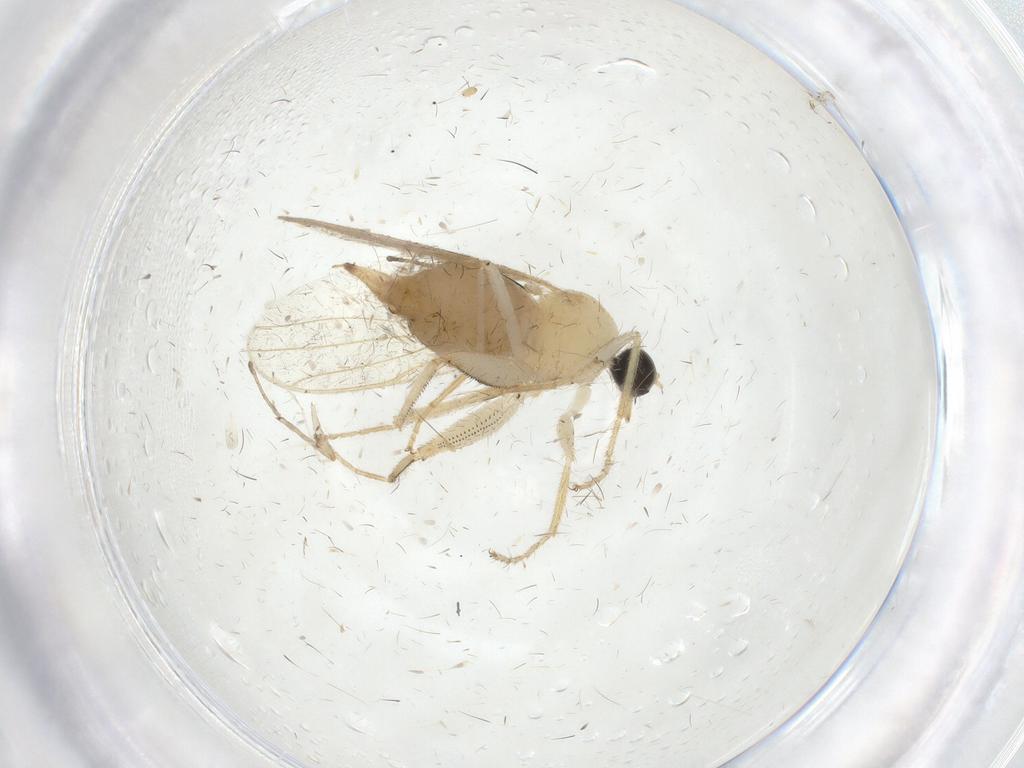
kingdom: Animalia
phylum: Arthropoda
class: Insecta
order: Diptera
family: Hybotidae
